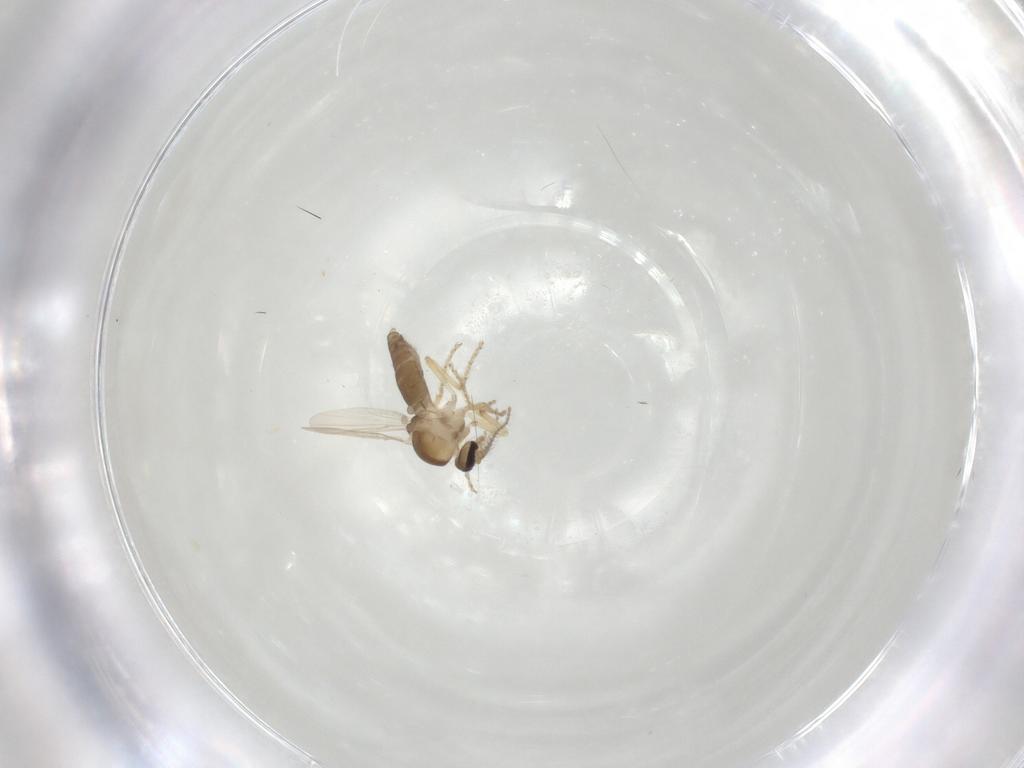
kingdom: Animalia
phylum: Arthropoda
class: Insecta
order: Diptera
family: Ceratopogonidae
